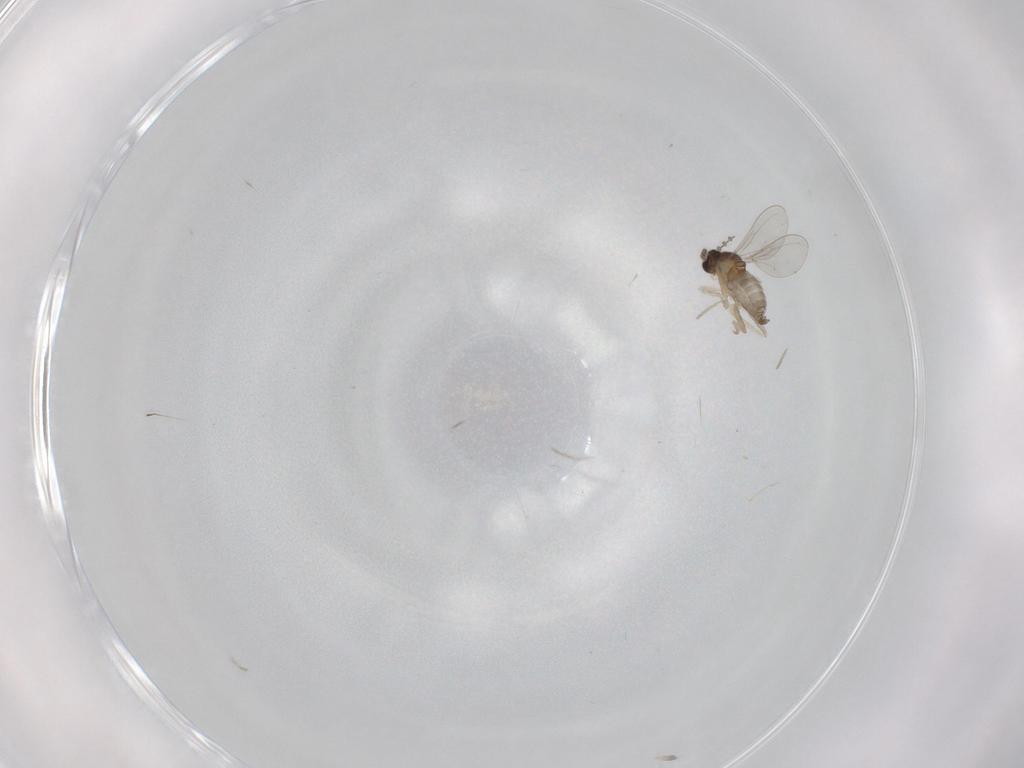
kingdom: Animalia
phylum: Arthropoda
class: Insecta
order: Diptera
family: Cecidomyiidae
